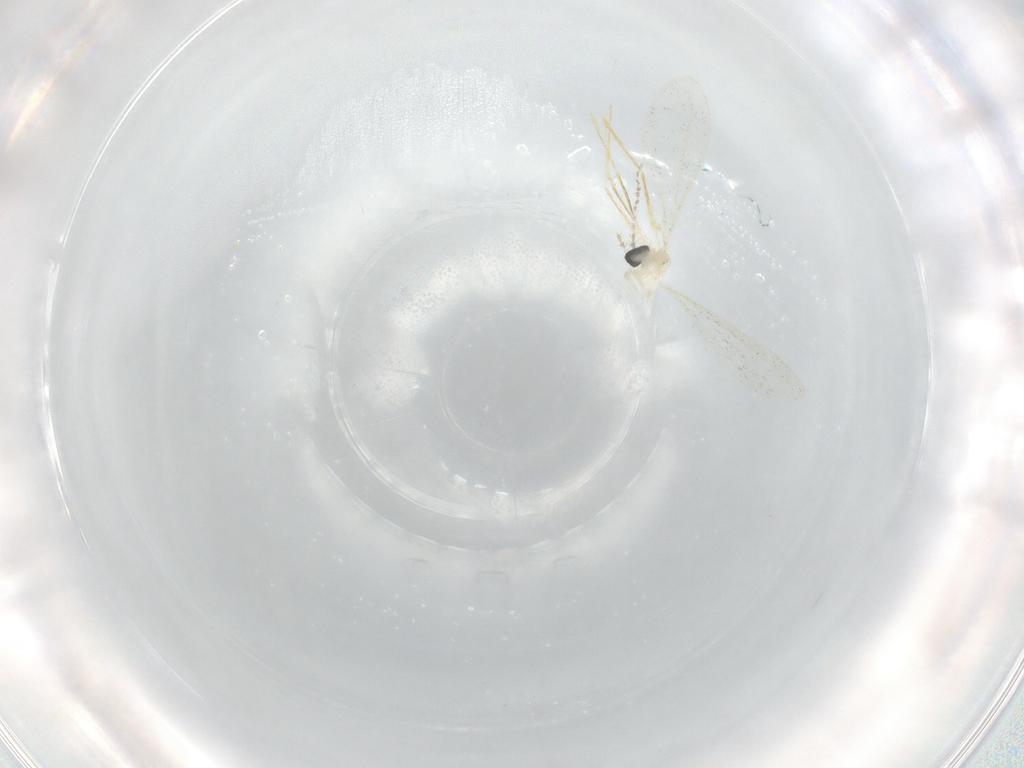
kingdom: Animalia
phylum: Arthropoda
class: Insecta
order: Diptera
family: Cecidomyiidae
